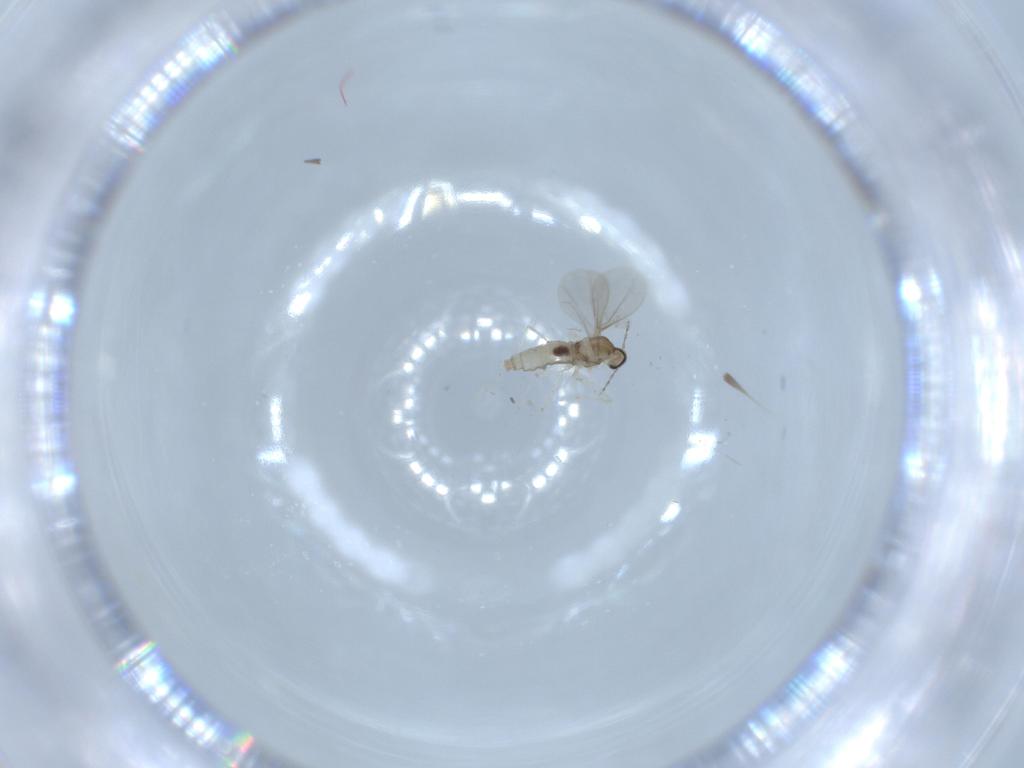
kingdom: Animalia
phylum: Arthropoda
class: Insecta
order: Diptera
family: Cecidomyiidae
